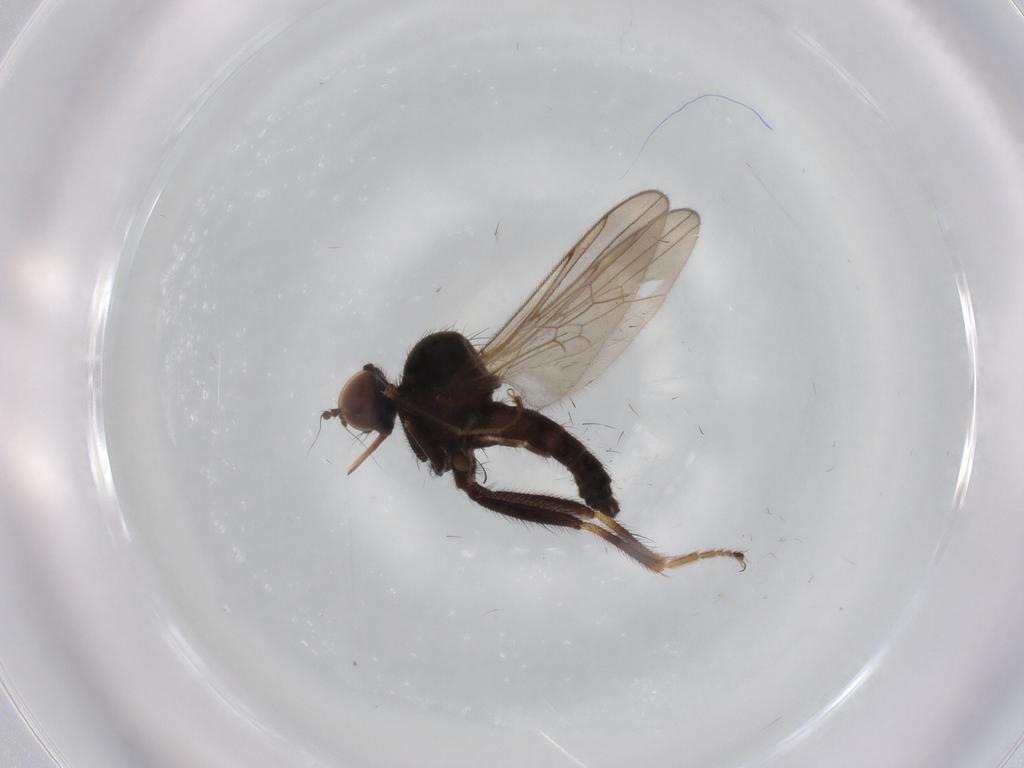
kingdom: Animalia
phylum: Arthropoda
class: Insecta
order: Diptera
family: Hybotidae
